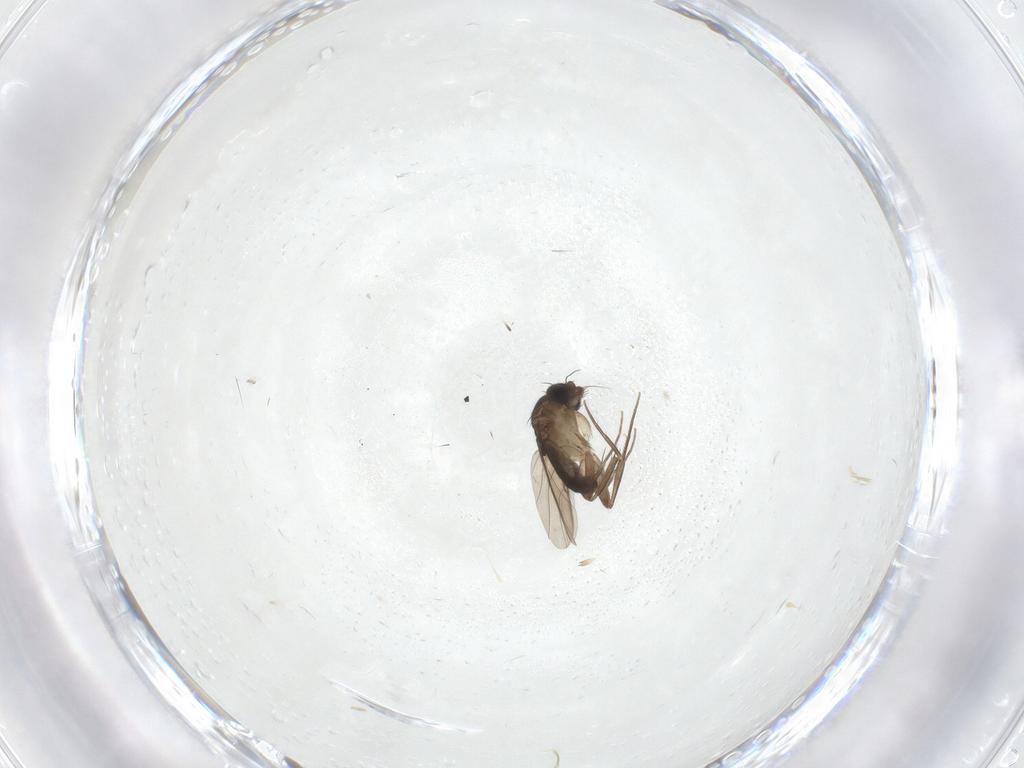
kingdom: Animalia
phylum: Arthropoda
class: Insecta
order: Diptera
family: Phoridae
